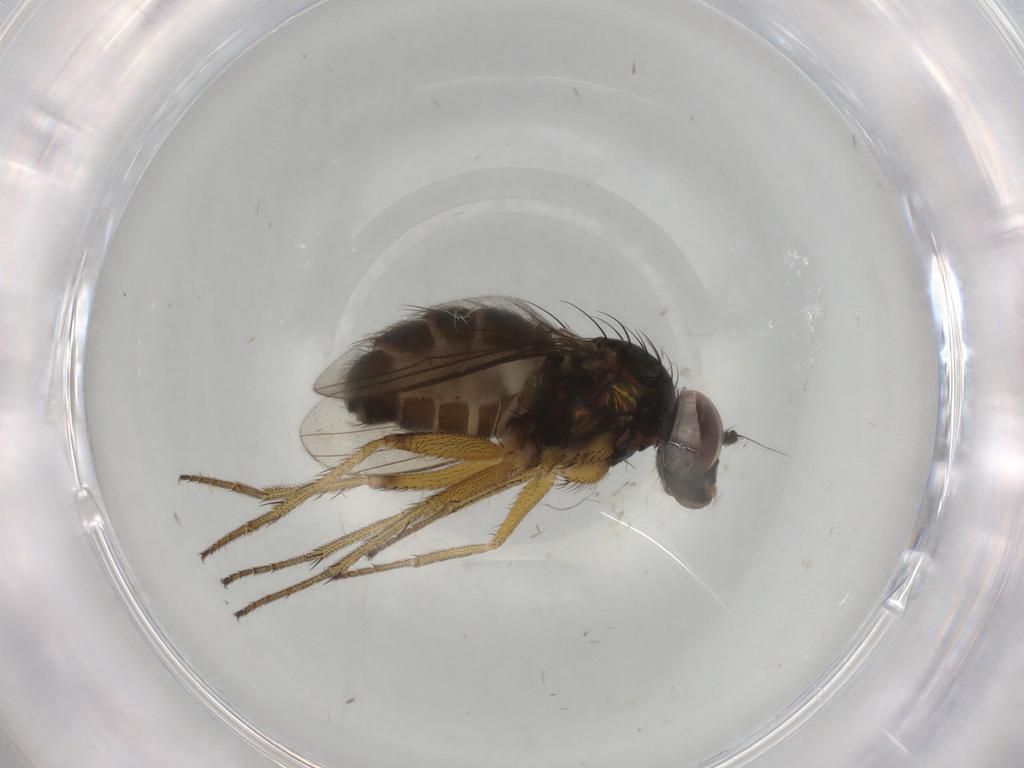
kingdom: Animalia
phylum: Arthropoda
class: Insecta
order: Diptera
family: Dolichopodidae
